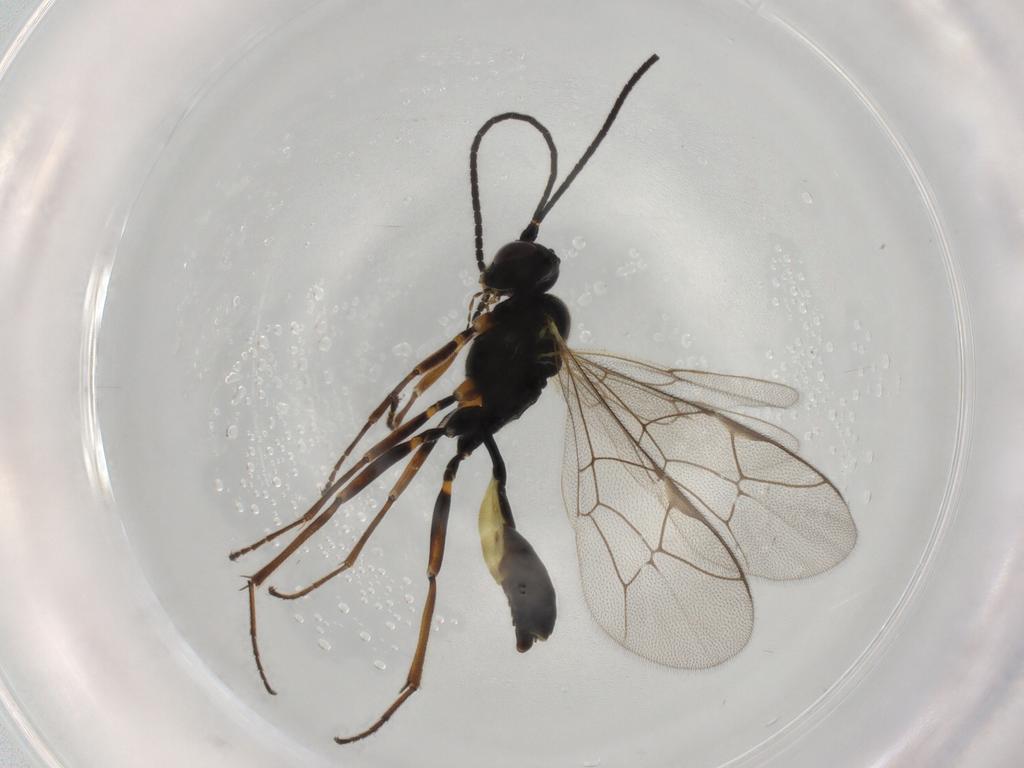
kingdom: Animalia
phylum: Arthropoda
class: Insecta
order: Hymenoptera
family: Ichneumonidae
